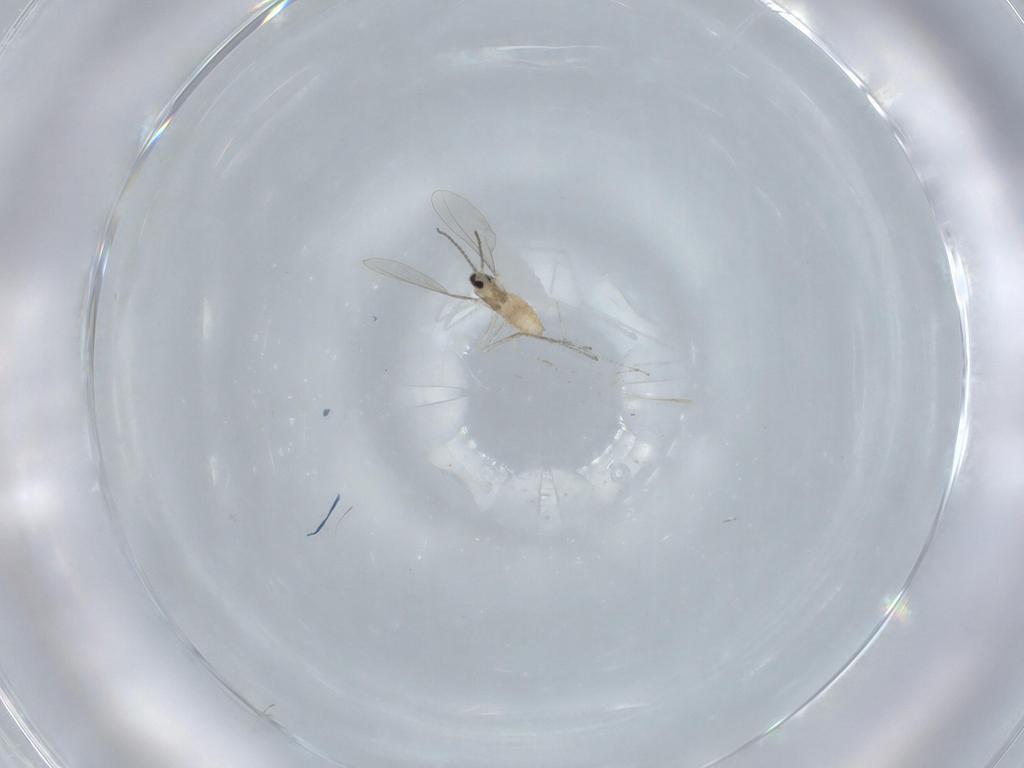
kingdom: Animalia
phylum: Arthropoda
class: Insecta
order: Diptera
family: Cecidomyiidae
